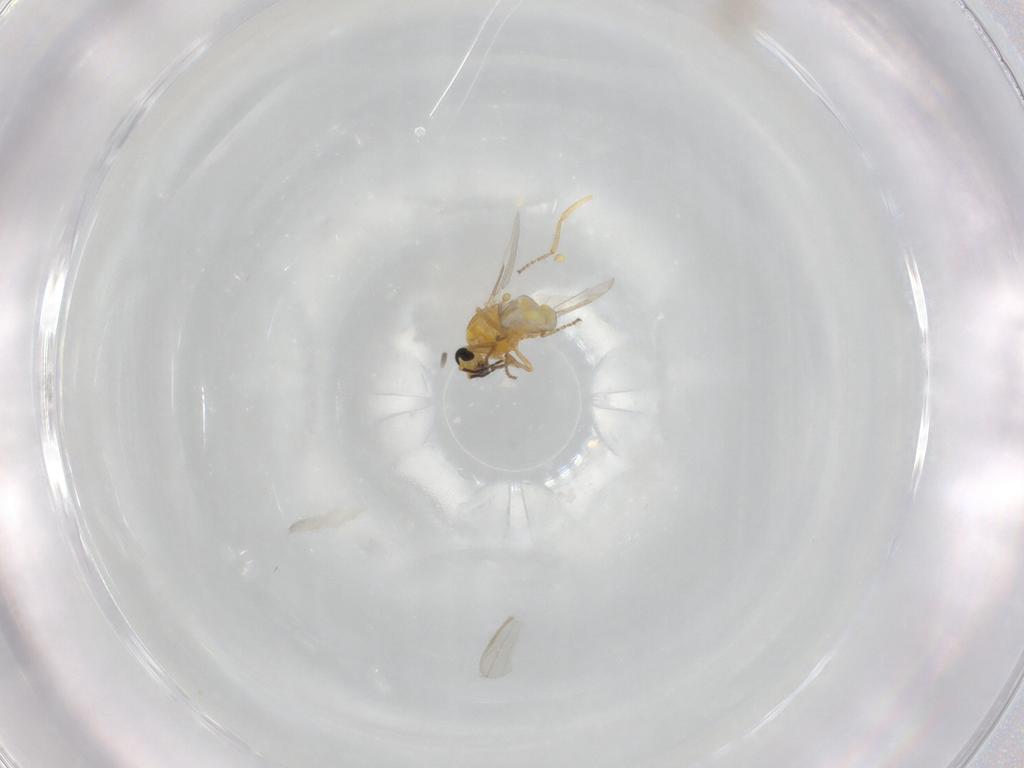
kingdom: Animalia
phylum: Arthropoda
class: Insecta
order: Diptera
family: Ceratopogonidae
